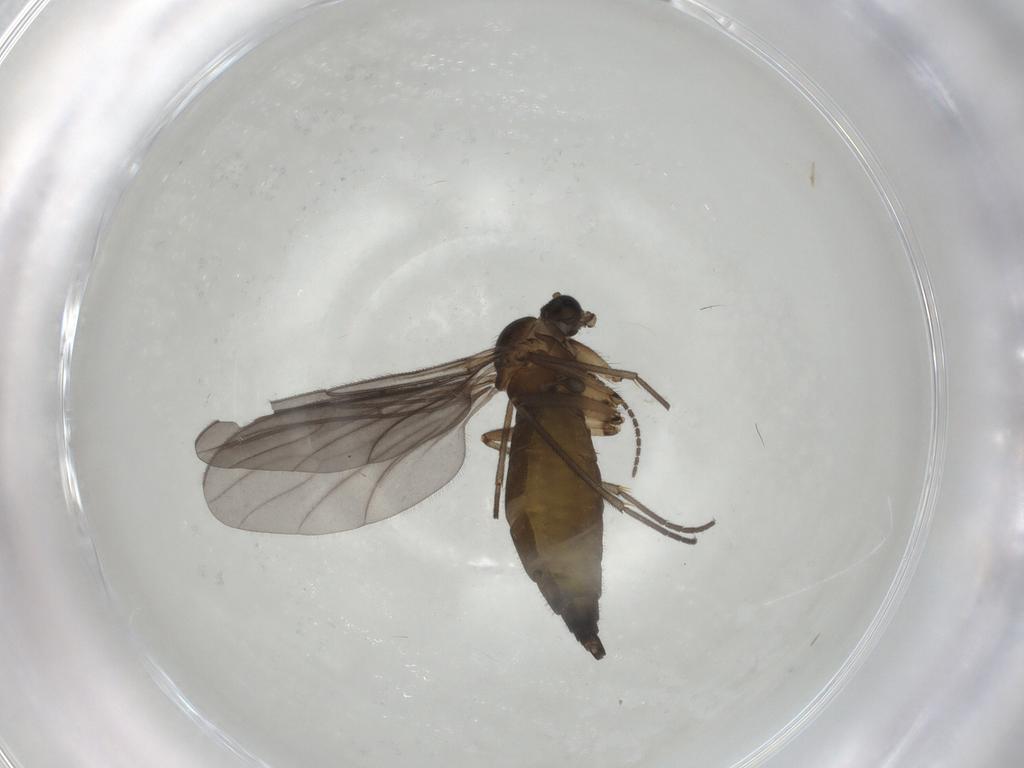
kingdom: Animalia
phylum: Arthropoda
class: Insecta
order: Diptera
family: Sciaridae
